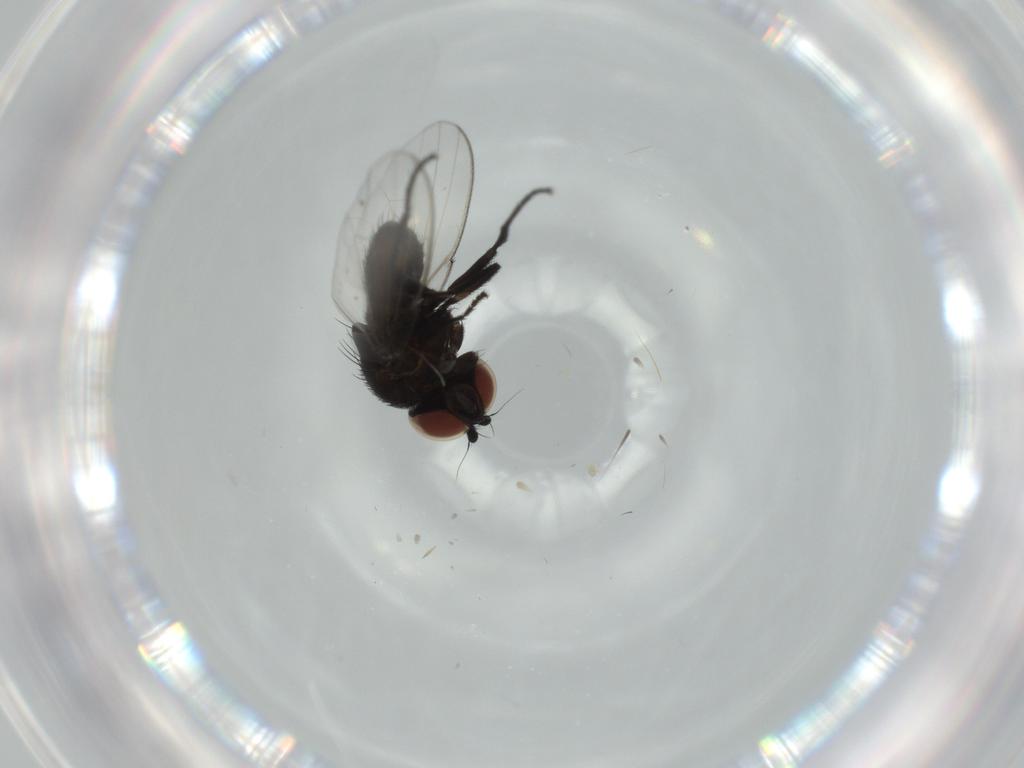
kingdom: Animalia
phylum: Arthropoda
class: Insecta
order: Diptera
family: Milichiidae
